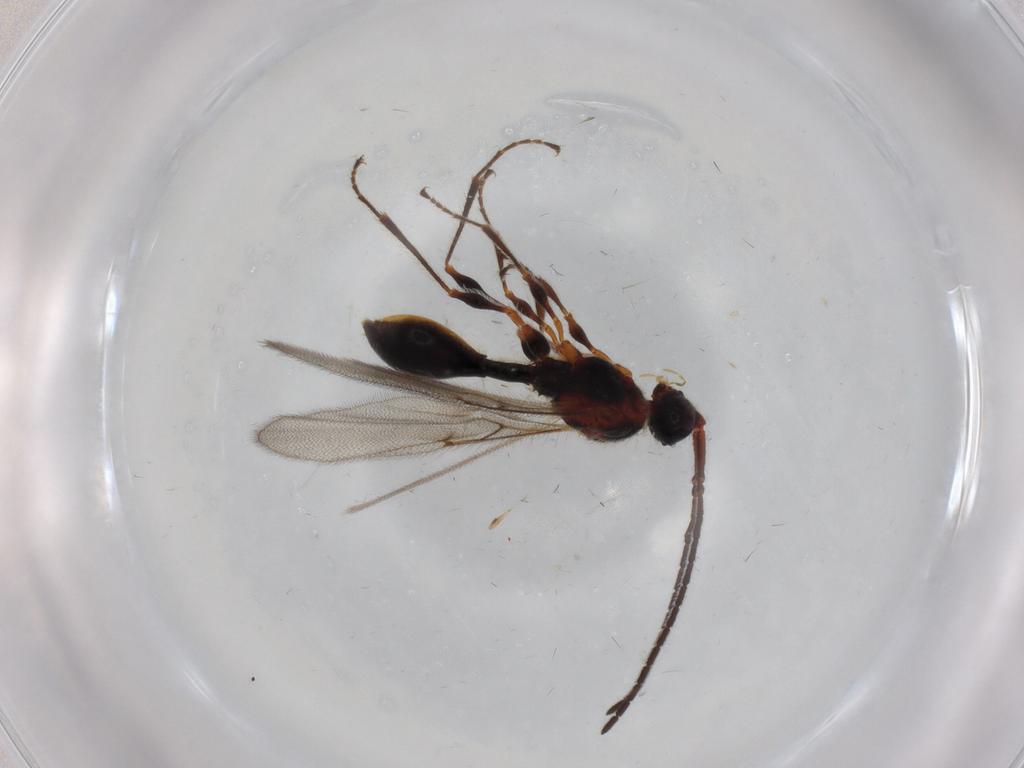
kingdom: Animalia
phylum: Arthropoda
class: Insecta
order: Hymenoptera
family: Diapriidae
